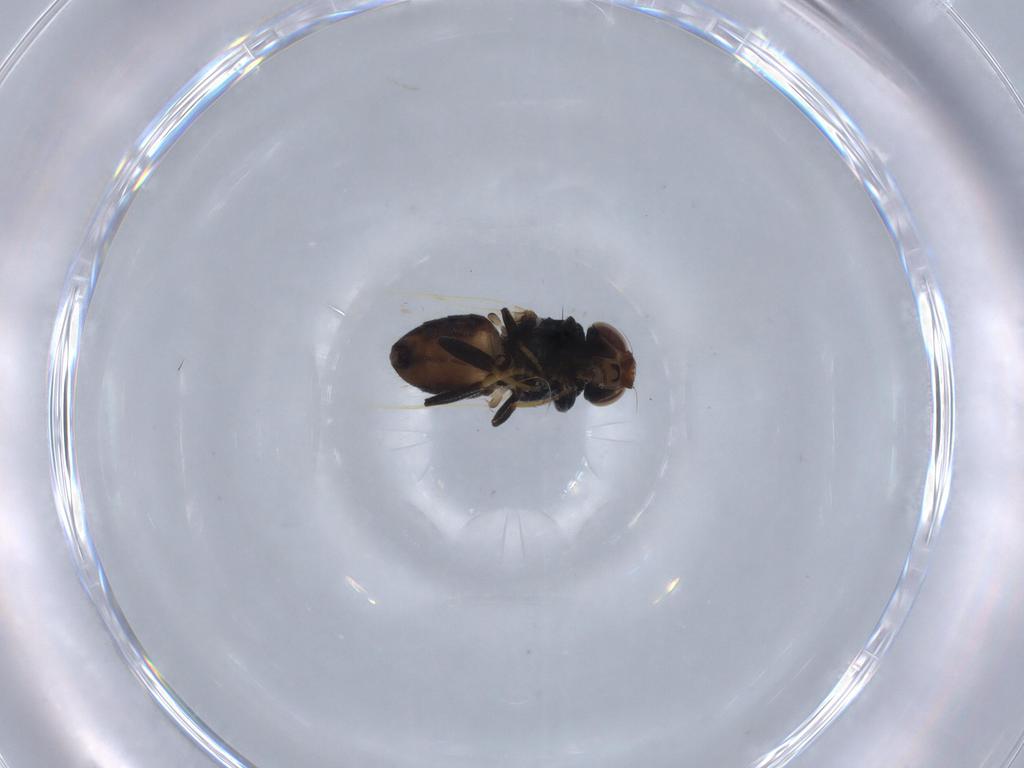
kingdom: Animalia
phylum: Arthropoda
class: Insecta
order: Diptera
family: Chloropidae
